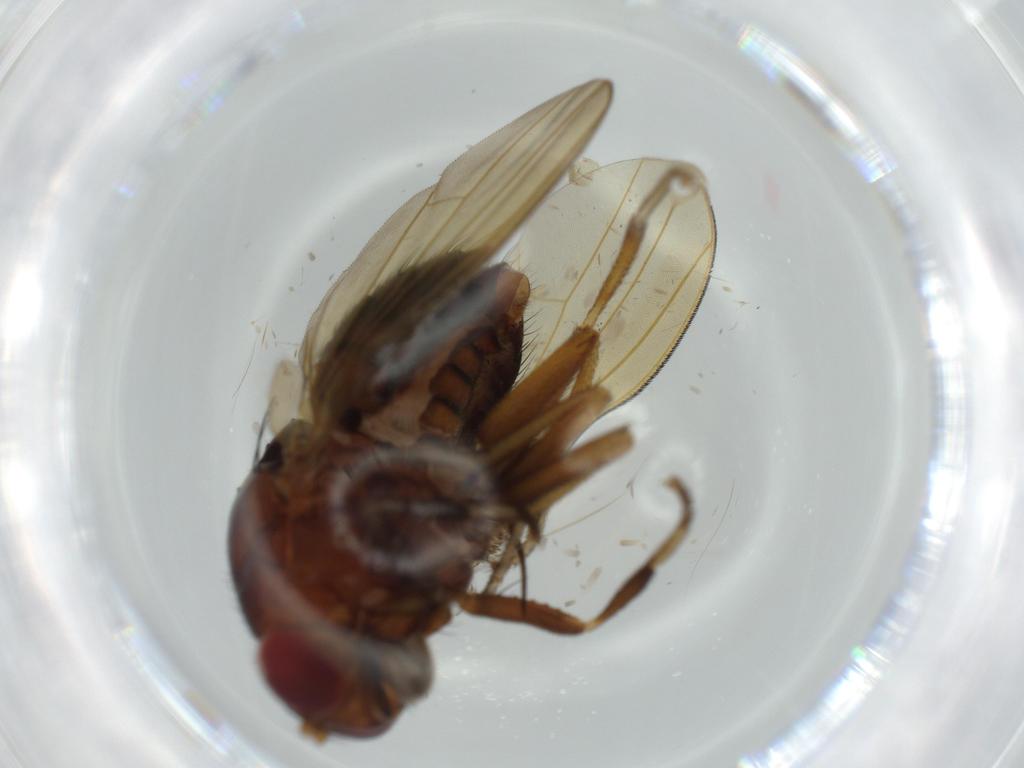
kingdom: Animalia
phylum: Arthropoda
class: Insecta
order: Diptera
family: Chironomidae
